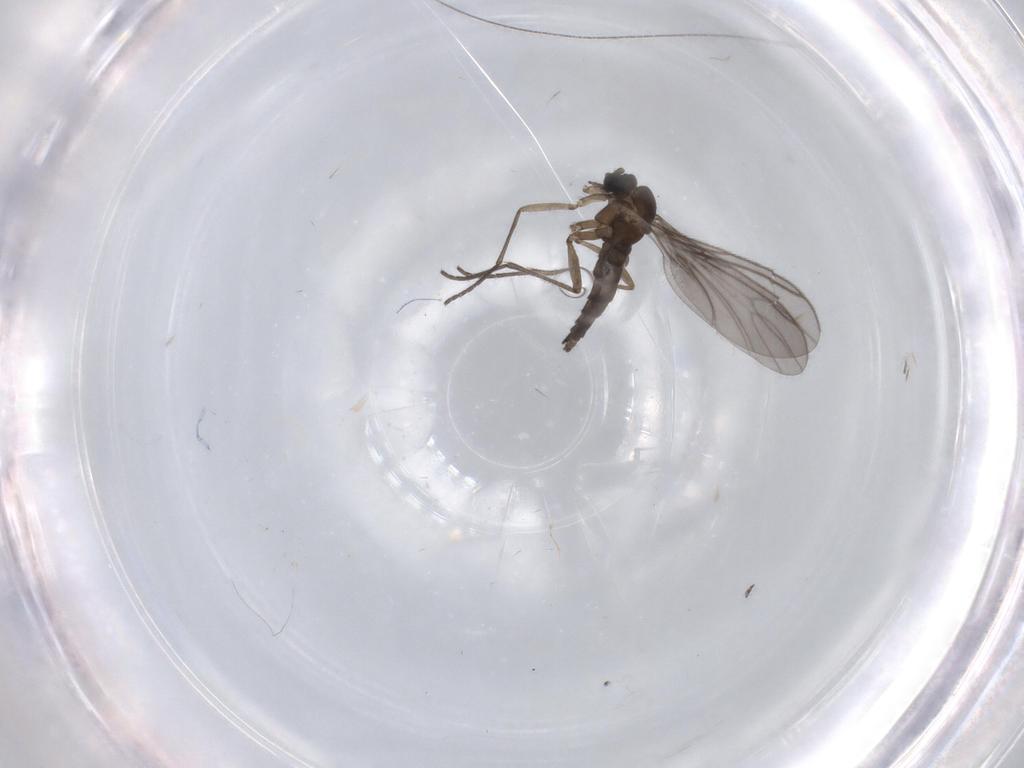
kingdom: Animalia
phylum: Arthropoda
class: Insecta
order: Diptera
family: Sciaridae
